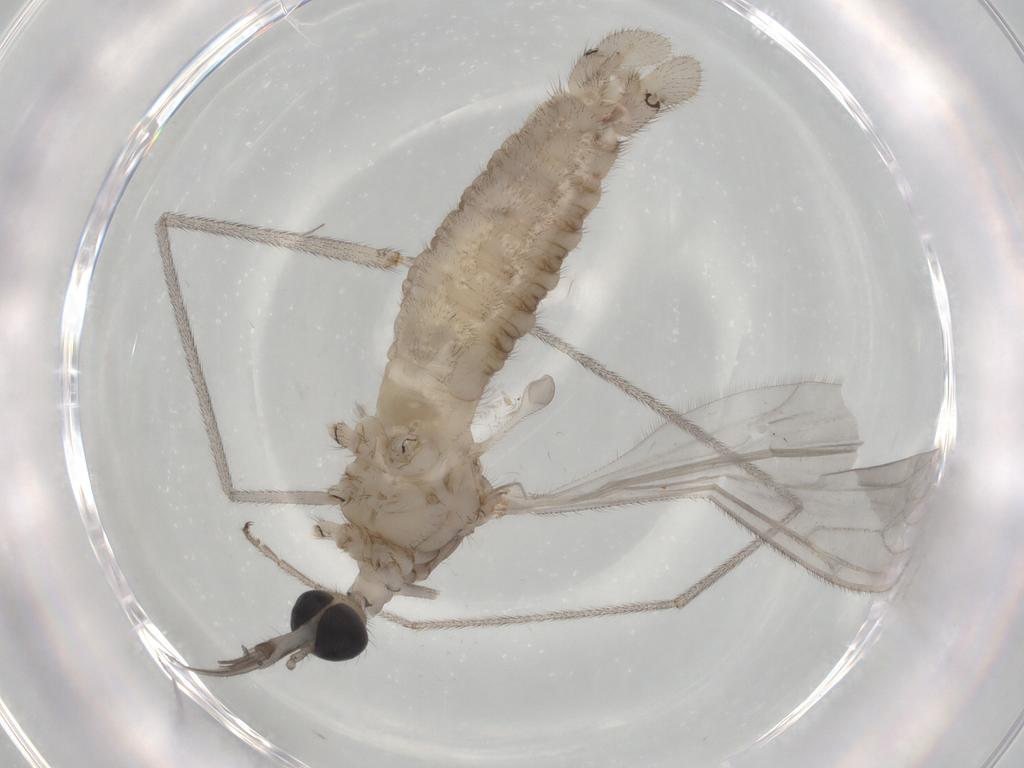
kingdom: Animalia
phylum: Arthropoda
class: Insecta
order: Diptera
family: Limoniidae
